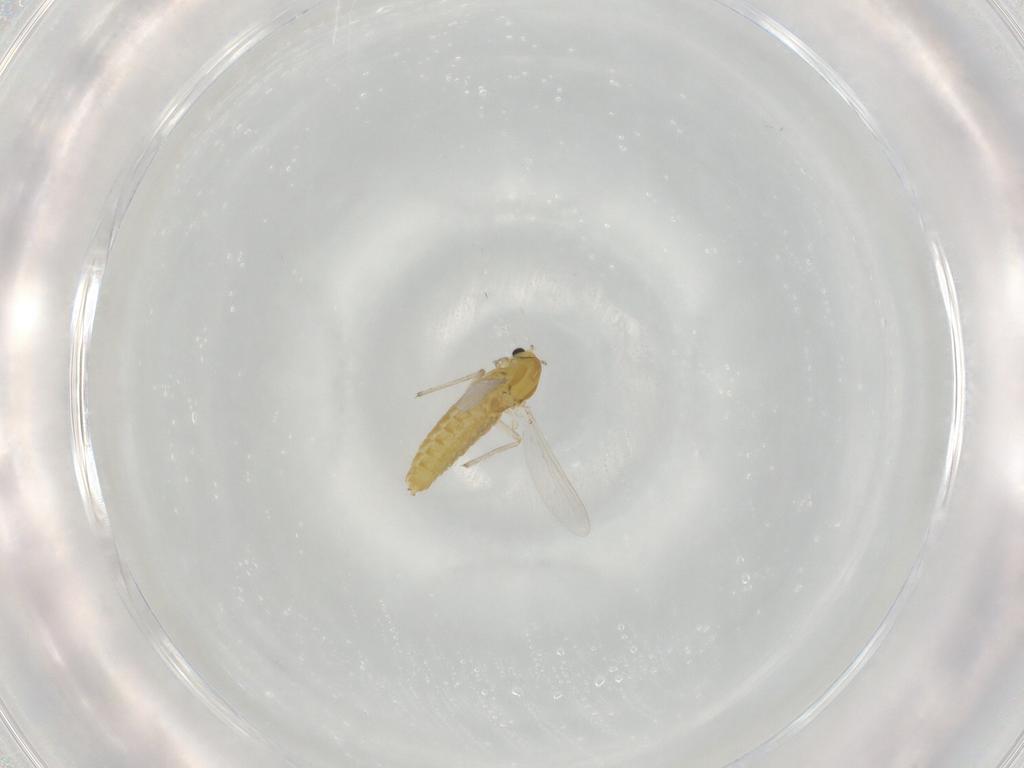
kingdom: Animalia
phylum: Arthropoda
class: Insecta
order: Diptera
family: Chironomidae
